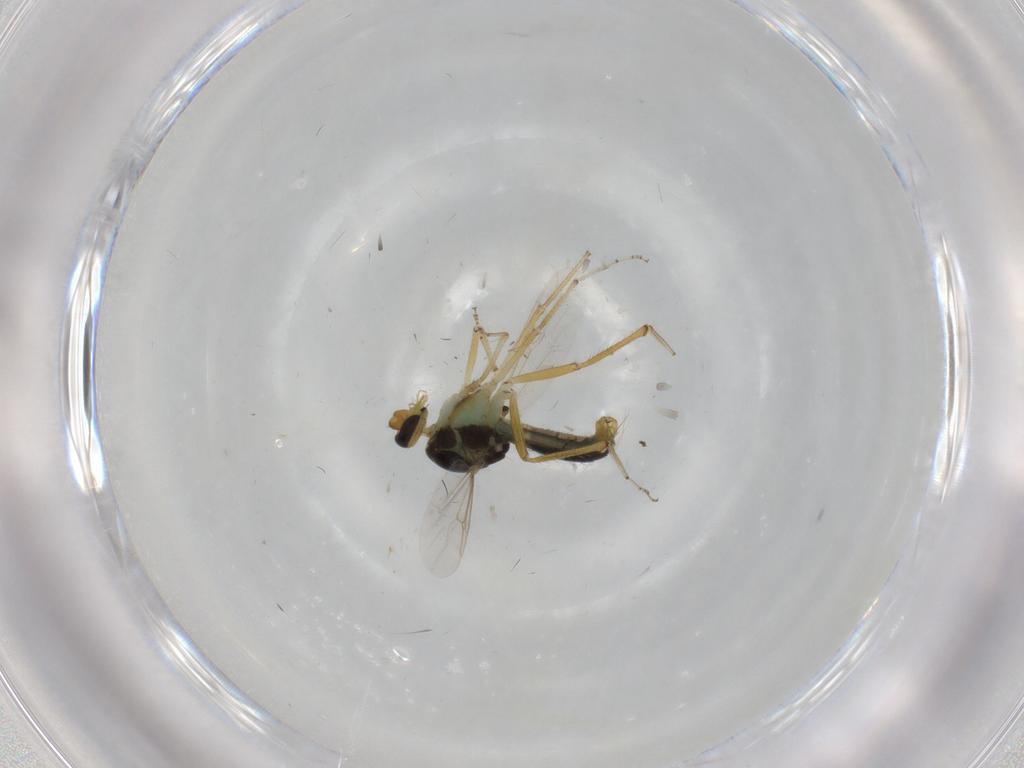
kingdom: Animalia
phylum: Arthropoda
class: Insecta
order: Diptera
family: Ceratopogonidae
